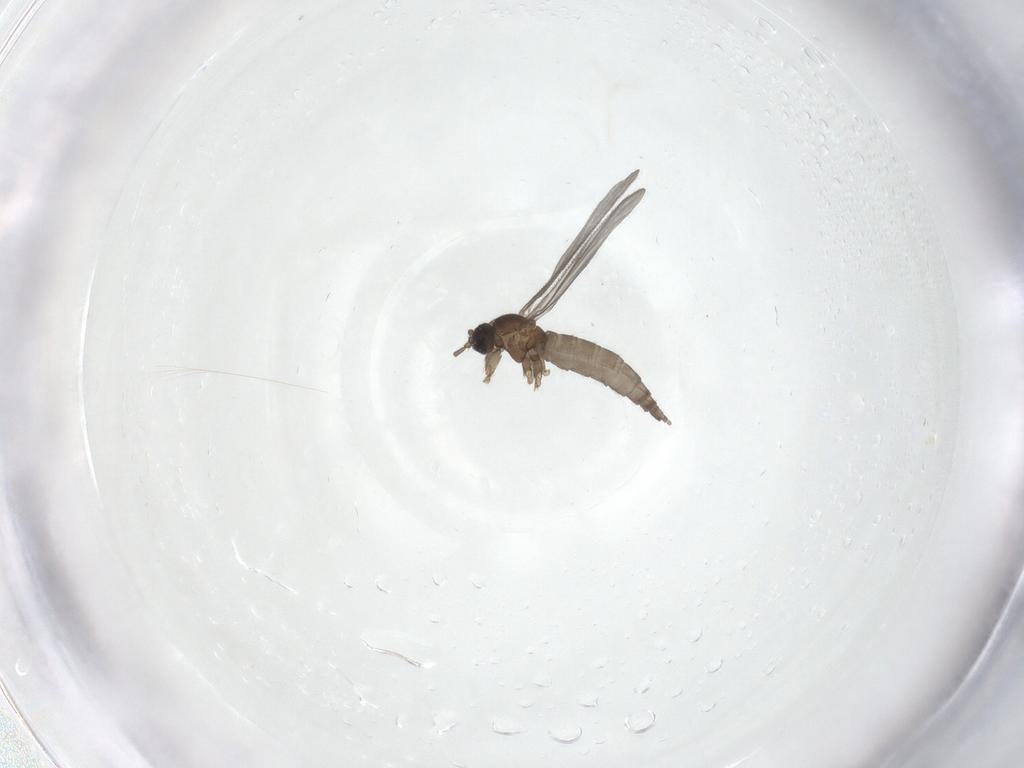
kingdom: Animalia
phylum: Arthropoda
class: Insecta
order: Diptera
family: Sciaridae
